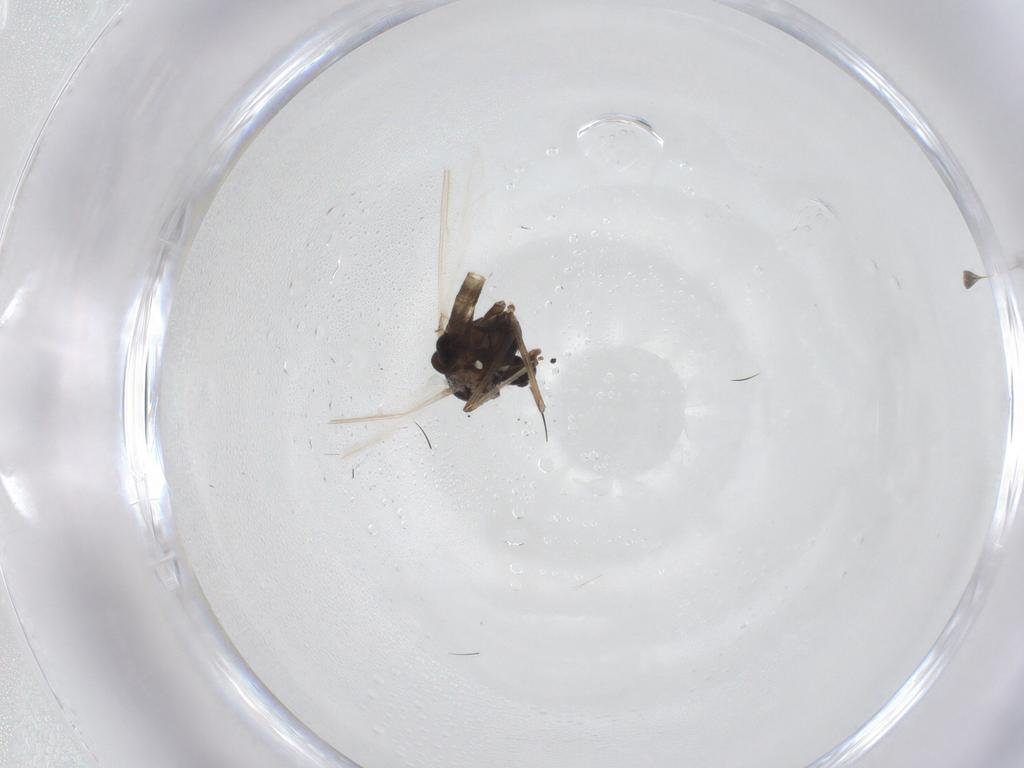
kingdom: Animalia
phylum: Arthropoda
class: Insecta
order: Diptera
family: Chironomidae
